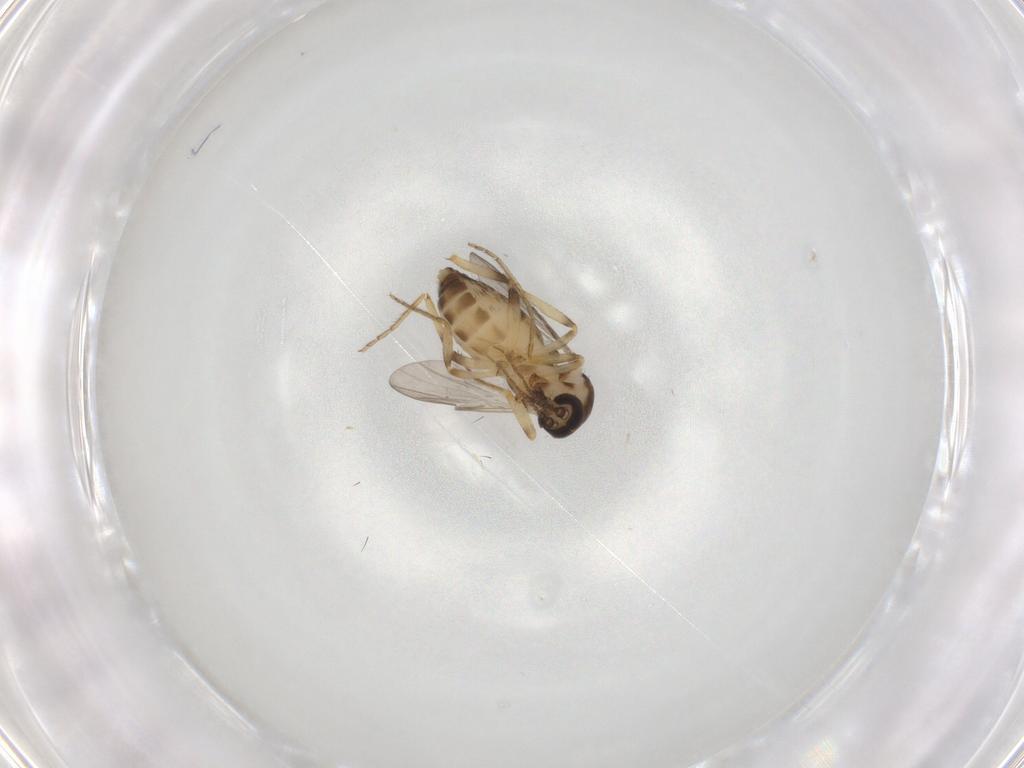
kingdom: Animalia
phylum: Arthropoda
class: Insecta
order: Diptera
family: Ceratopogonidae
